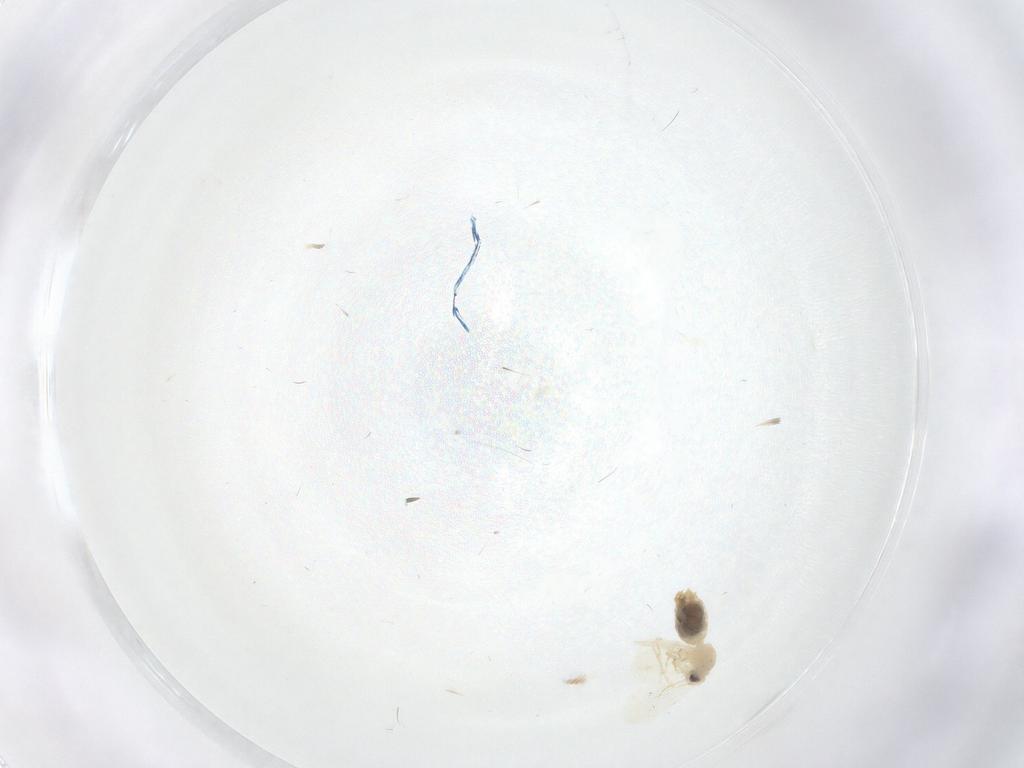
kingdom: Animalia
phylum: Arthropoda
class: Insecta
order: Hemiptera
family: Aleyrodidae
